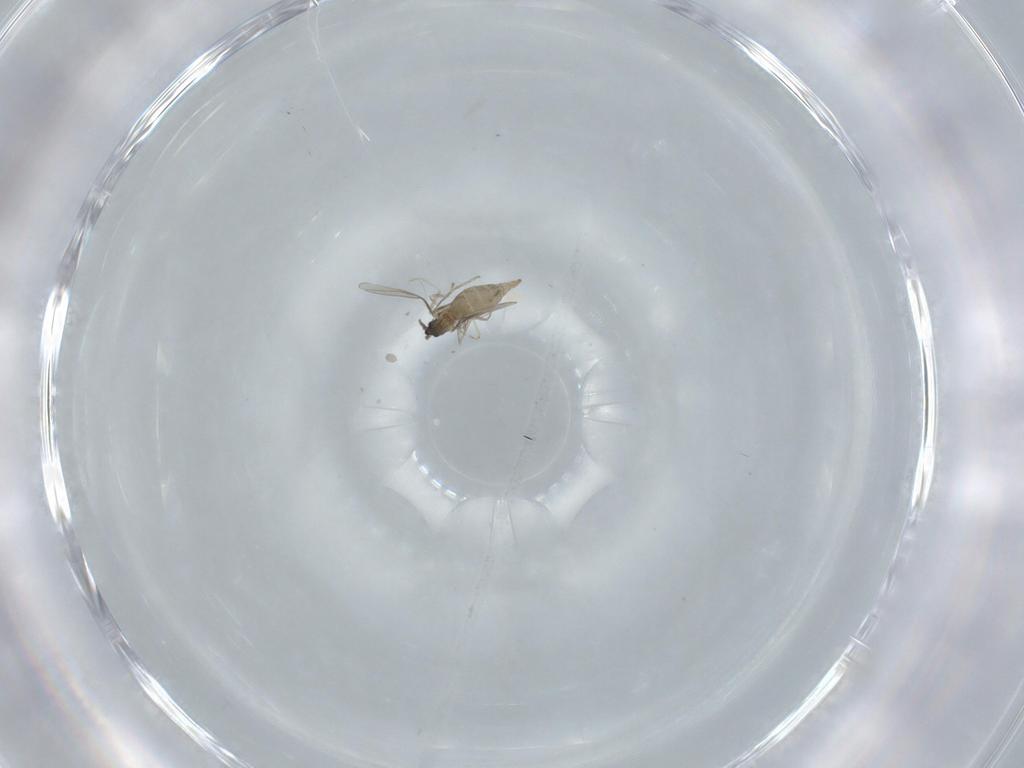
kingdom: Animalia
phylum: Arthropoda
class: Insecta
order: Diptera
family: Cecidomyiidae
